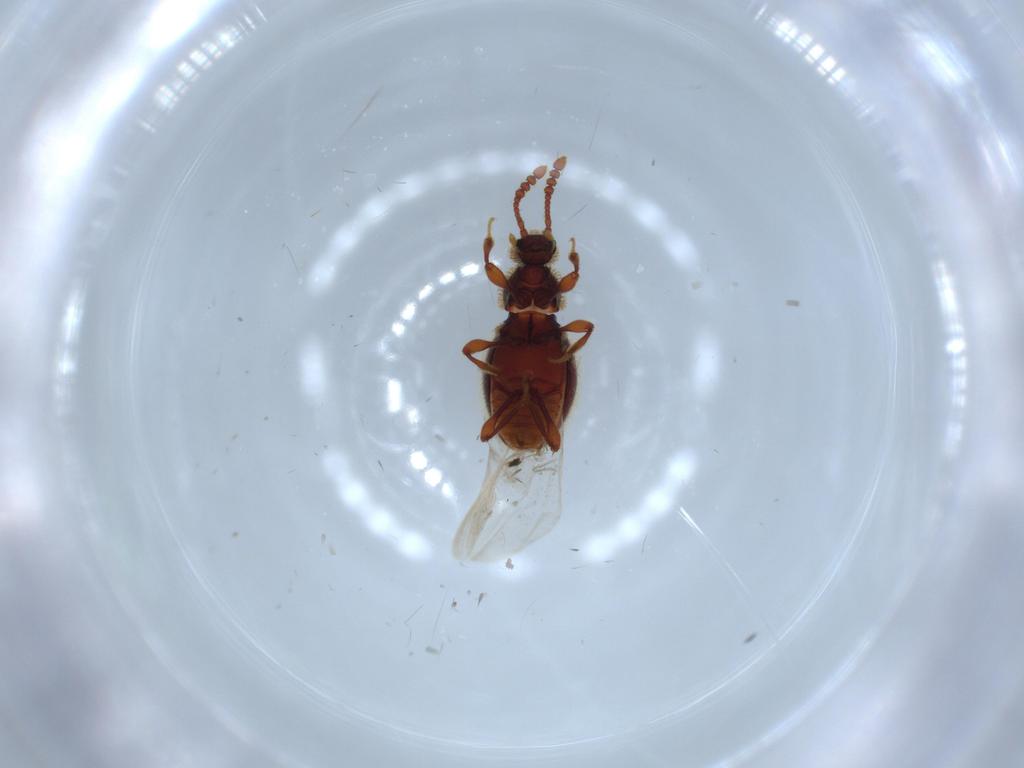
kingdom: Animalia
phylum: Arthropoda
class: Insecta
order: Coleoptera
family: Curculionidae
